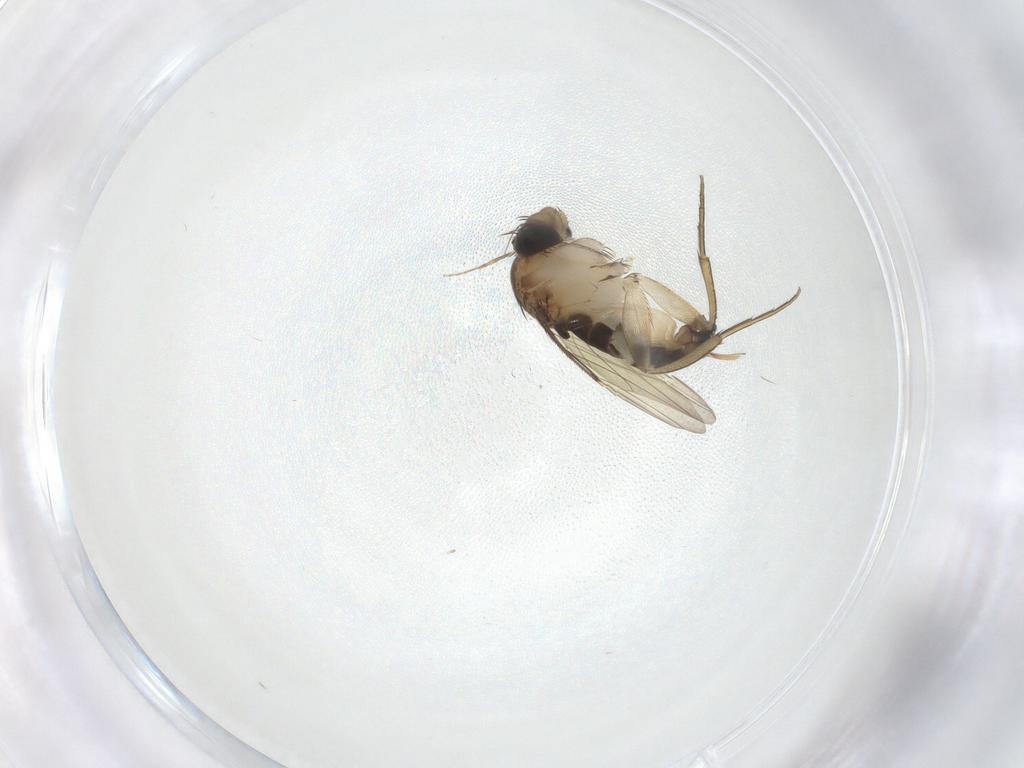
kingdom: Animalia
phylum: Arthropoda
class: Insecta
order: Diptera
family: Phoridae
